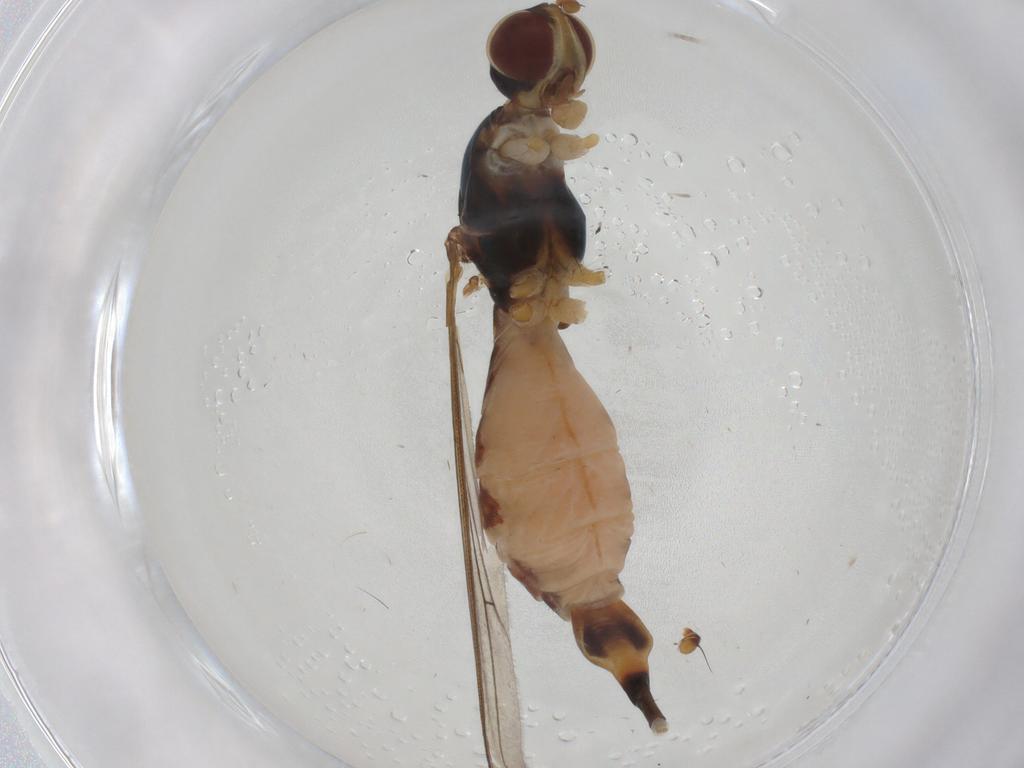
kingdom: Animalia
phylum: Arthropoda
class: Insecta
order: Diptera
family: Micropezidae
